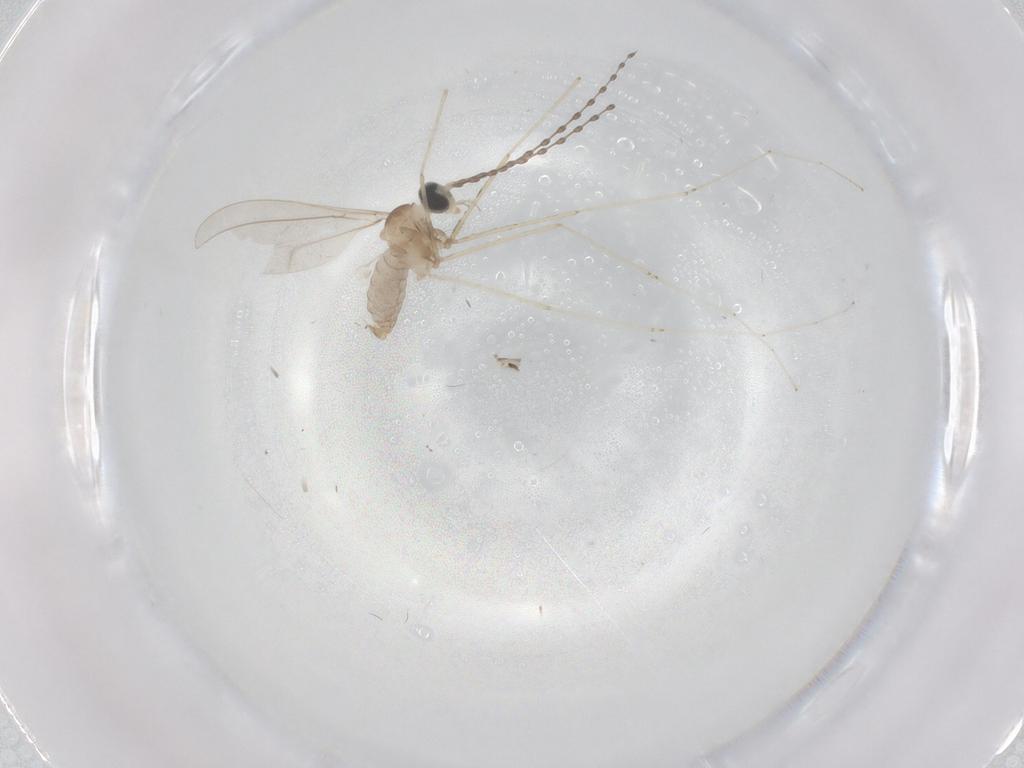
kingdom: Animalia
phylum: Arthropoda
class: Insecta
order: Diptera
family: Cecidomyiidae
